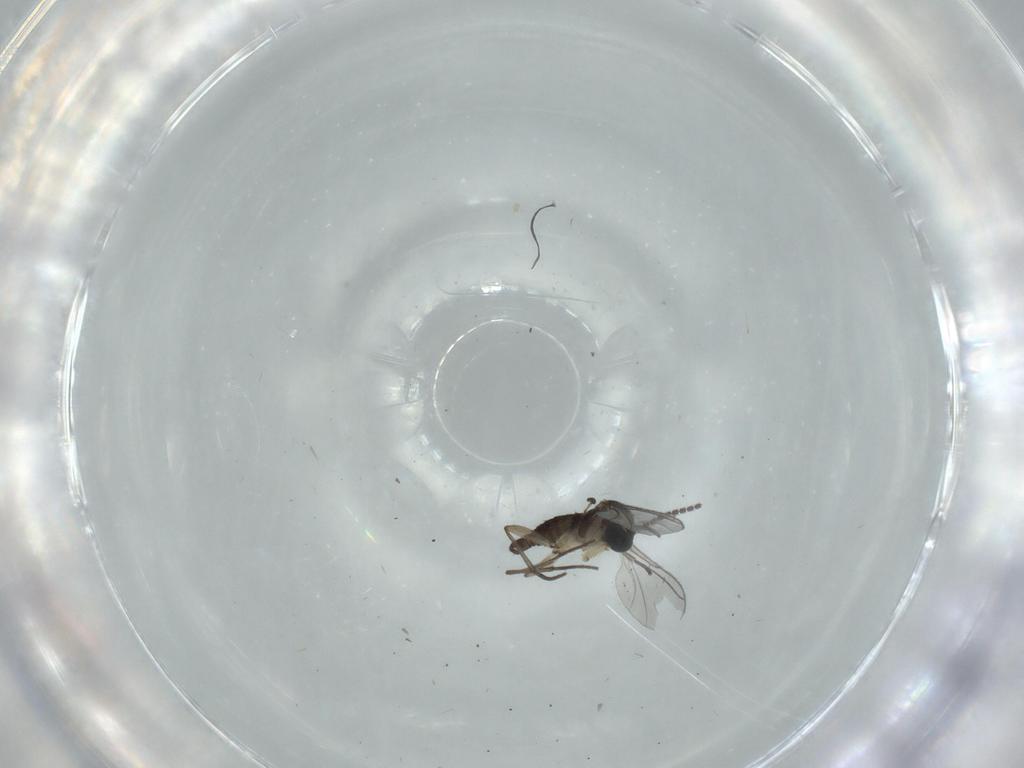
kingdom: Animalia
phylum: Arthropoda
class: Insecta
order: Diptera
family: Sciaridae
